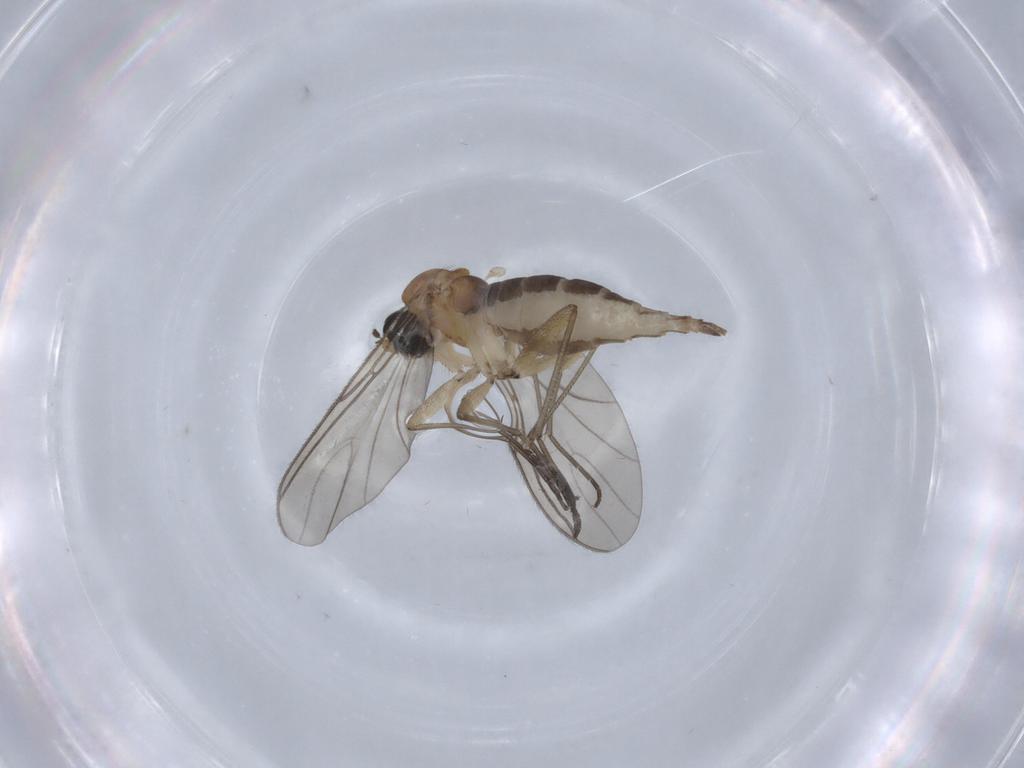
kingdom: Animalia
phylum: Arthropoda
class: Insecta
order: Diptera
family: Sciaridae
